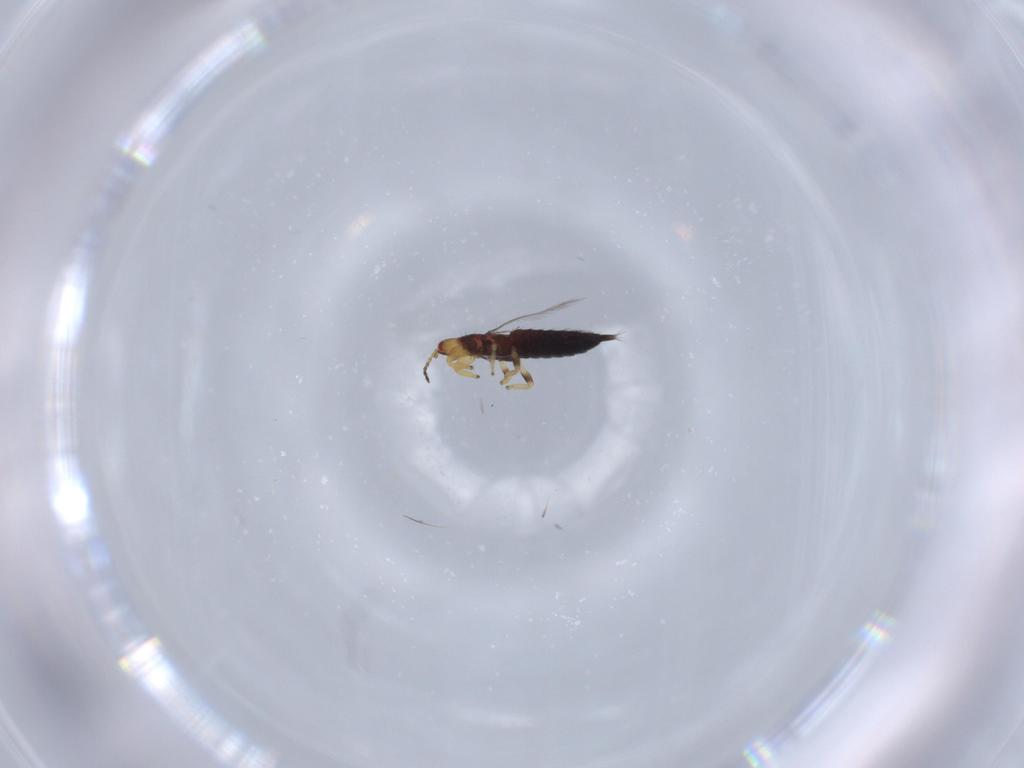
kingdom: Animalia
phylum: Arthropoda
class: Insecta
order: Thysanoptera
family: Phlaeothripidae
